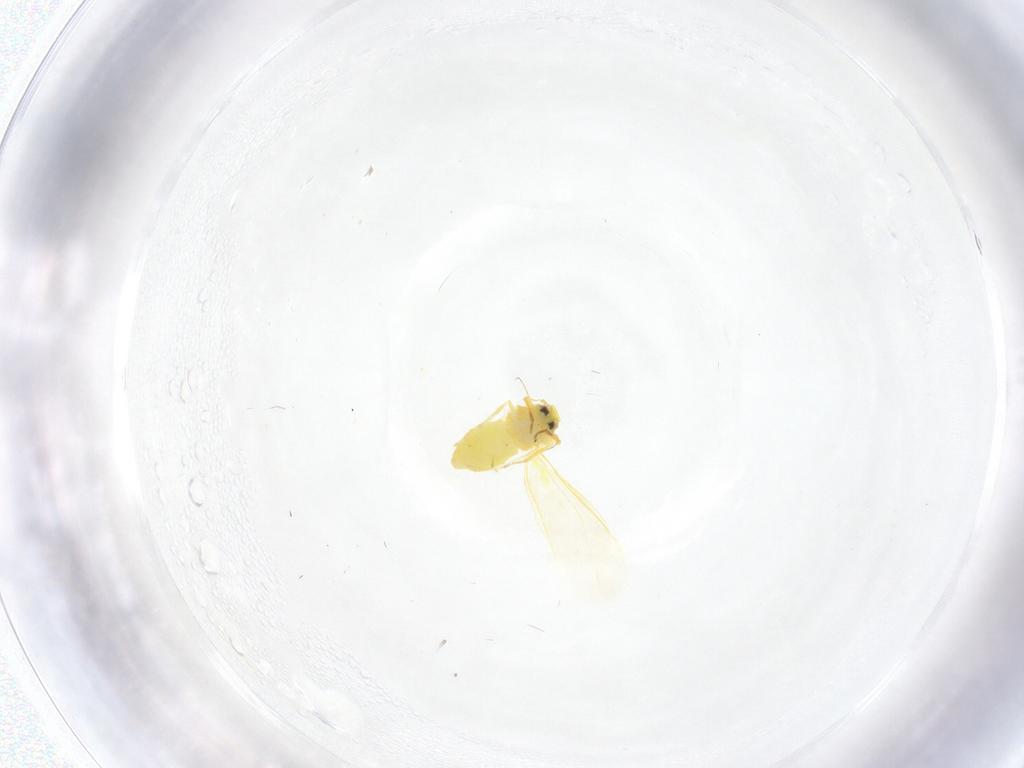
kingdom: Animalia
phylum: Arthropoda
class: Insecta
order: Hemiptera
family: Aleyrodidae
